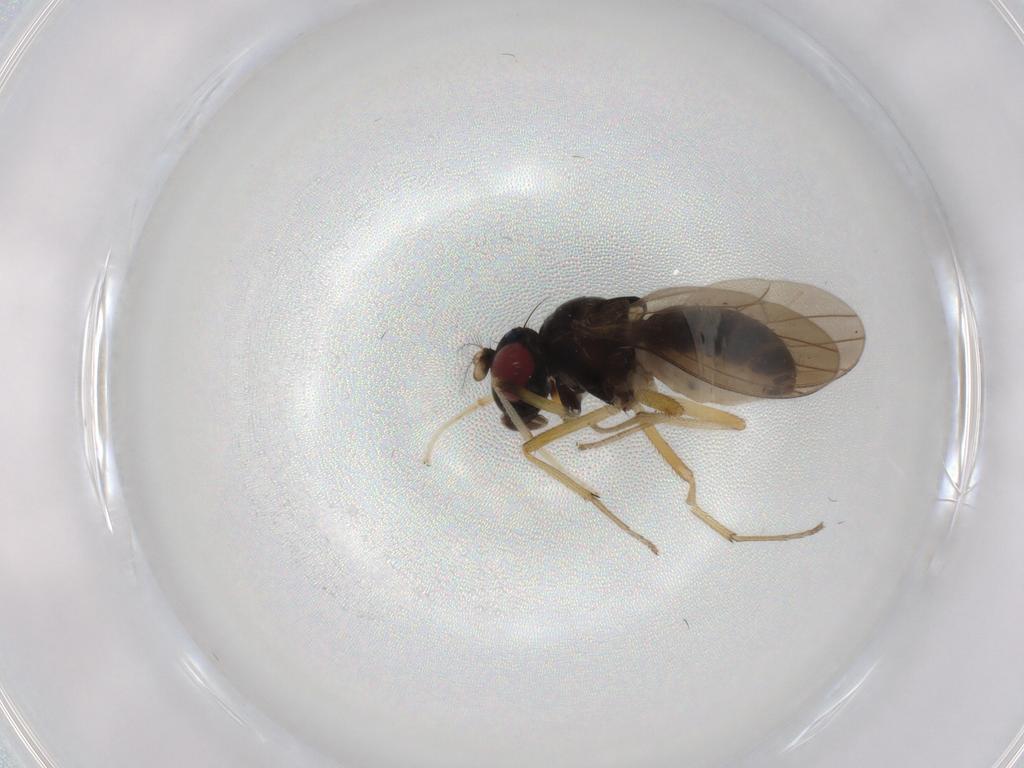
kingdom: Animalia
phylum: Arthropoda
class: Insecta
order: Diptera
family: Lauxaniidae
